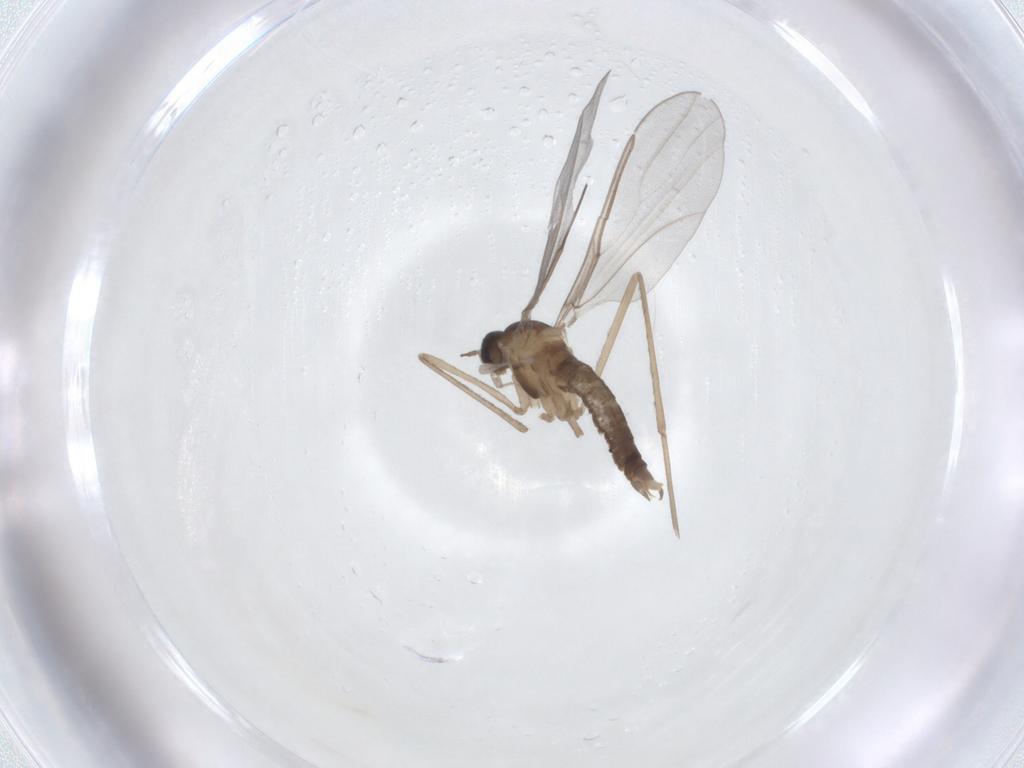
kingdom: Animalia
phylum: Arthropoda
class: Insecta
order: Diptera
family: Cecidomyiidae
